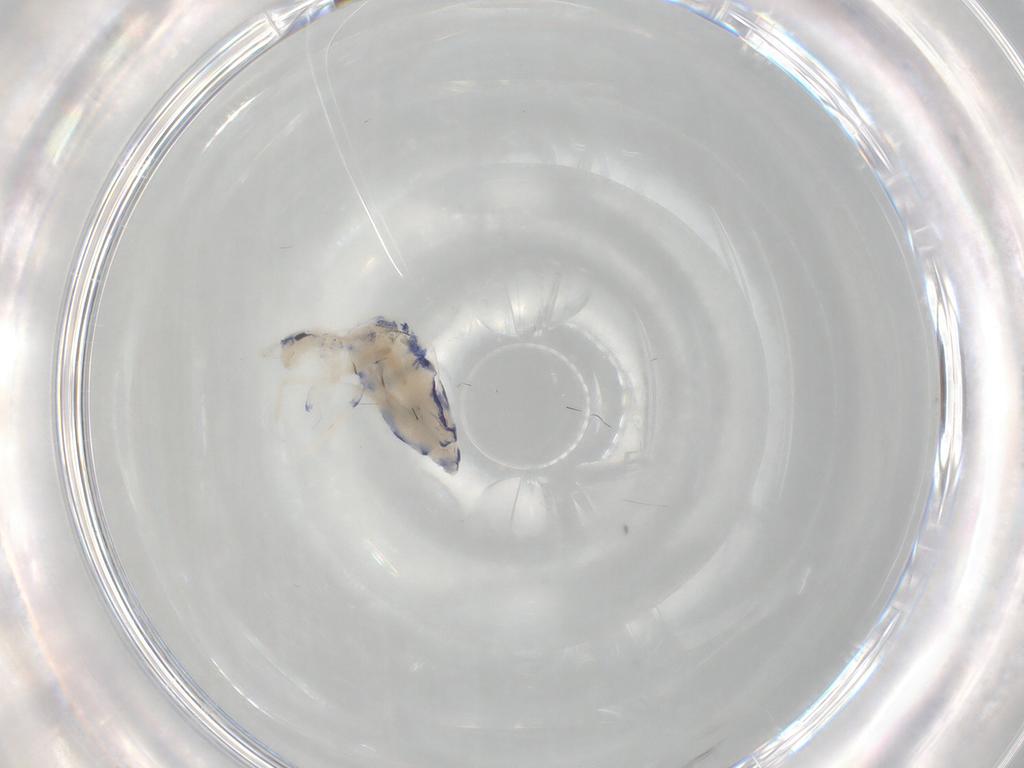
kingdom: Animalia
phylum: Arthropoda
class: Collembola
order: Entomobryomorpha
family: Entomobryidae
